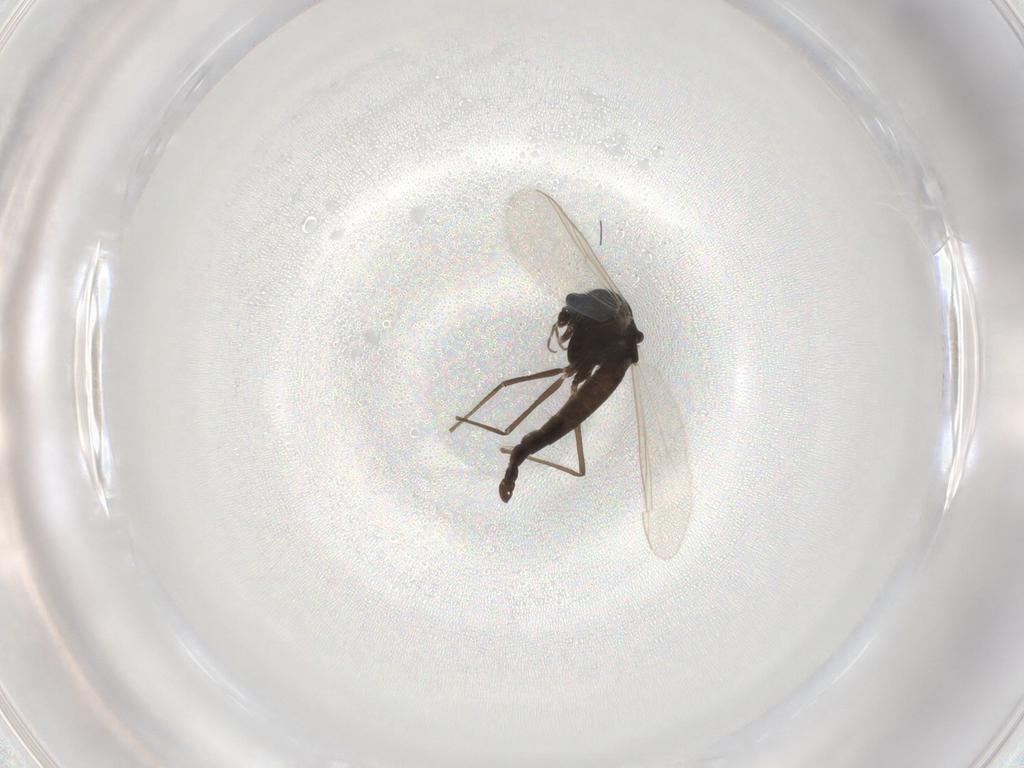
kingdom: Animalia
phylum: Arthropoda
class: Insecta
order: Diptera
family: Chironomidae
